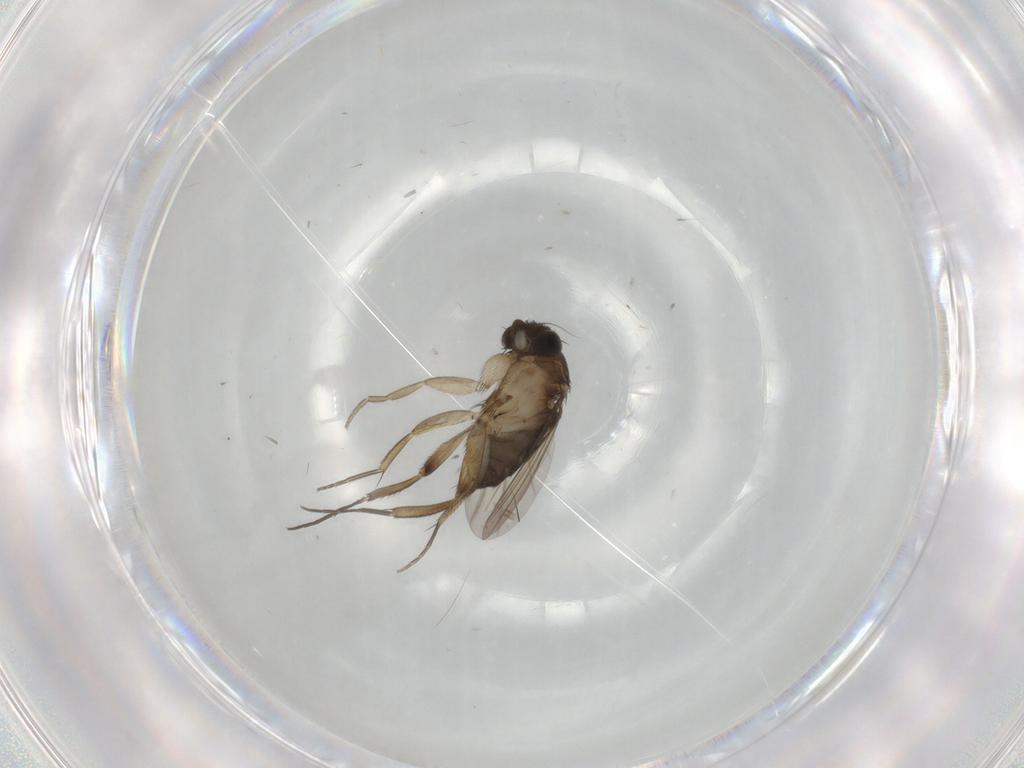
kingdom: Animalia
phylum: Arthropoda
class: Insecta
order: Diptera
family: Phoridae
